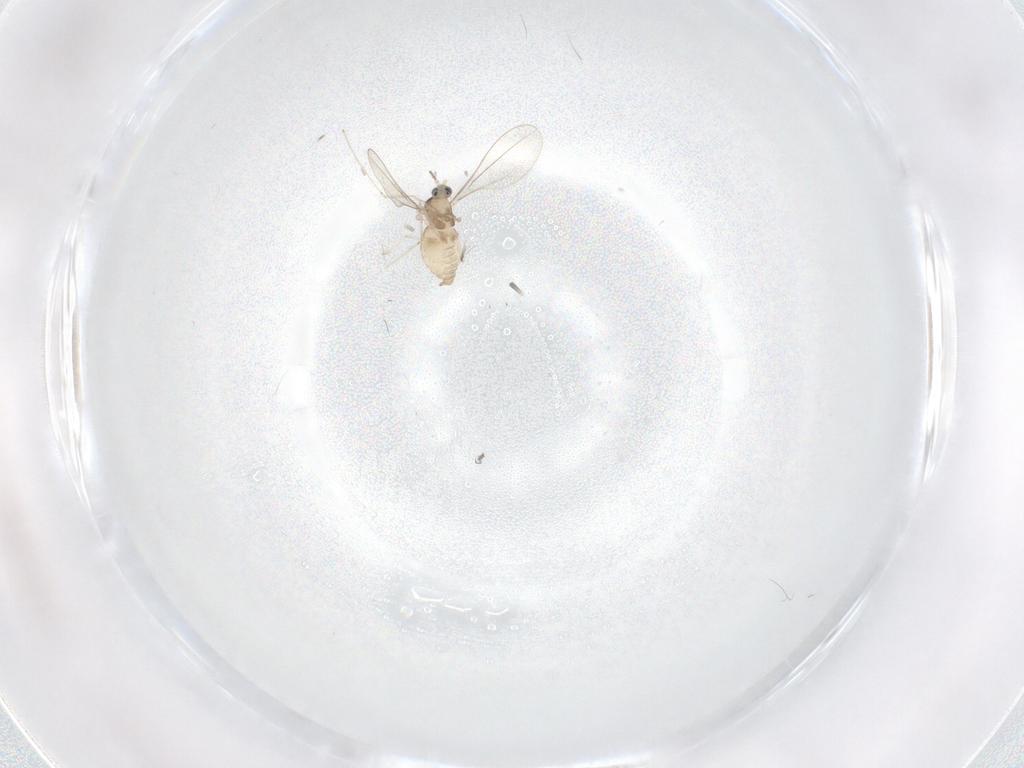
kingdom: Animalia
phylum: Arthropoda
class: Insecta
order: Diptera
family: Cecidomyiidae
